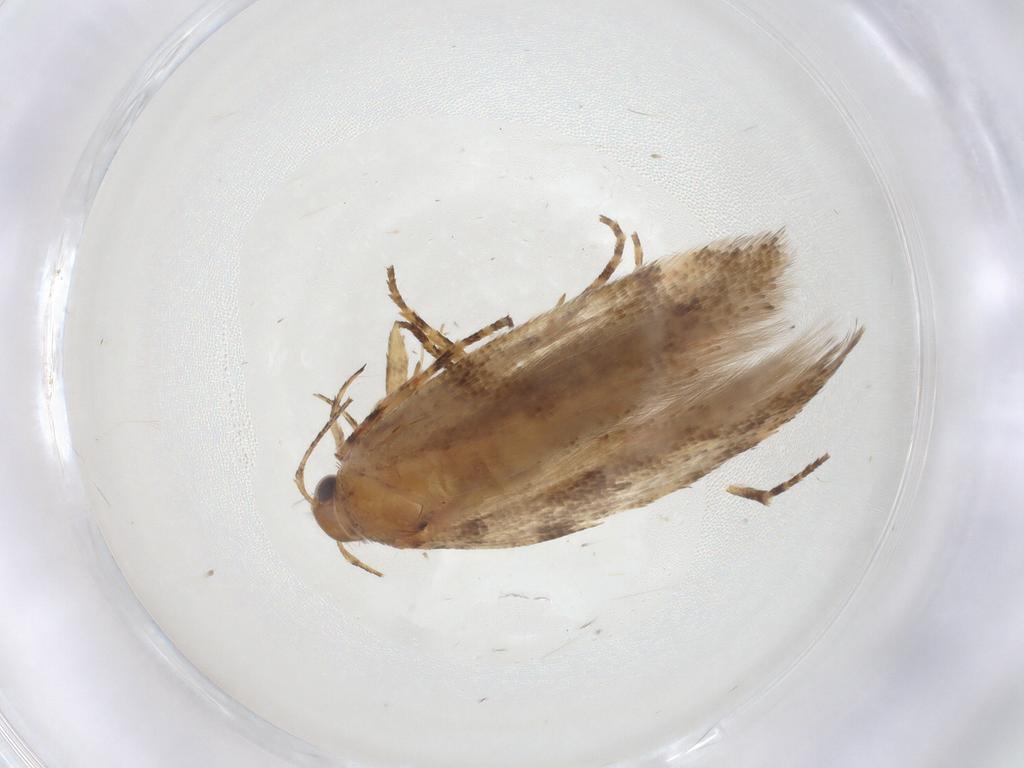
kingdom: Animalia
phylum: Arthropoda
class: Insecta
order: Lepidoptera
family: Gelechiidae
